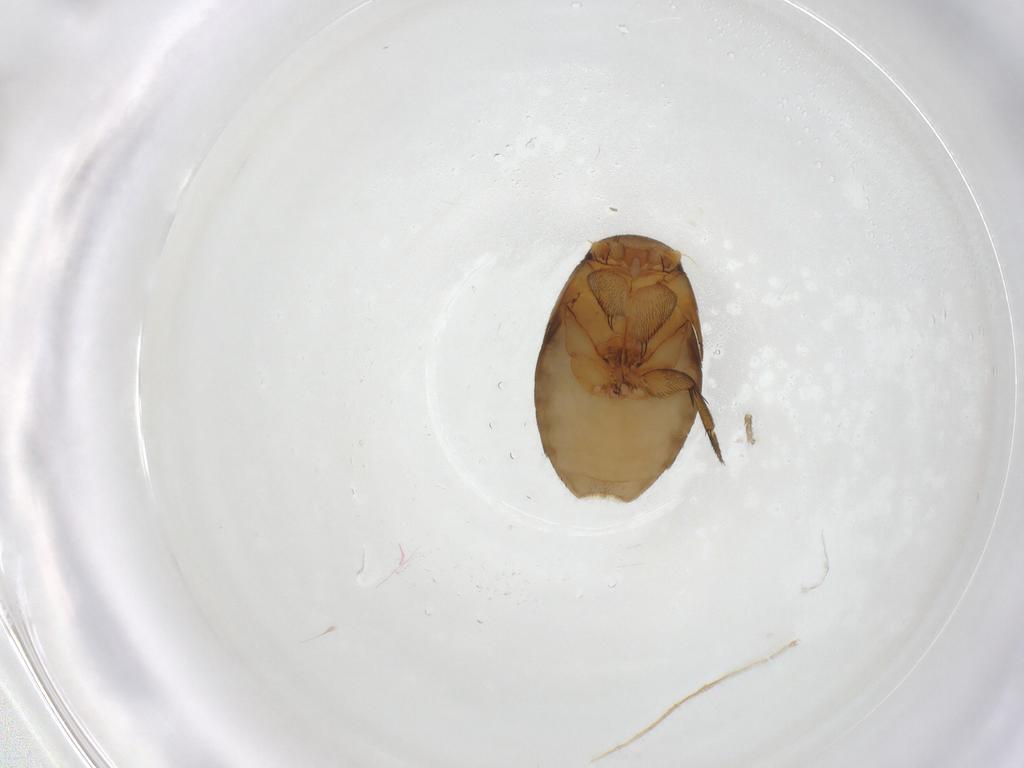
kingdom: Animalia
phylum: Arthropoda
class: Insecta
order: Diptera
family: Phoridae
